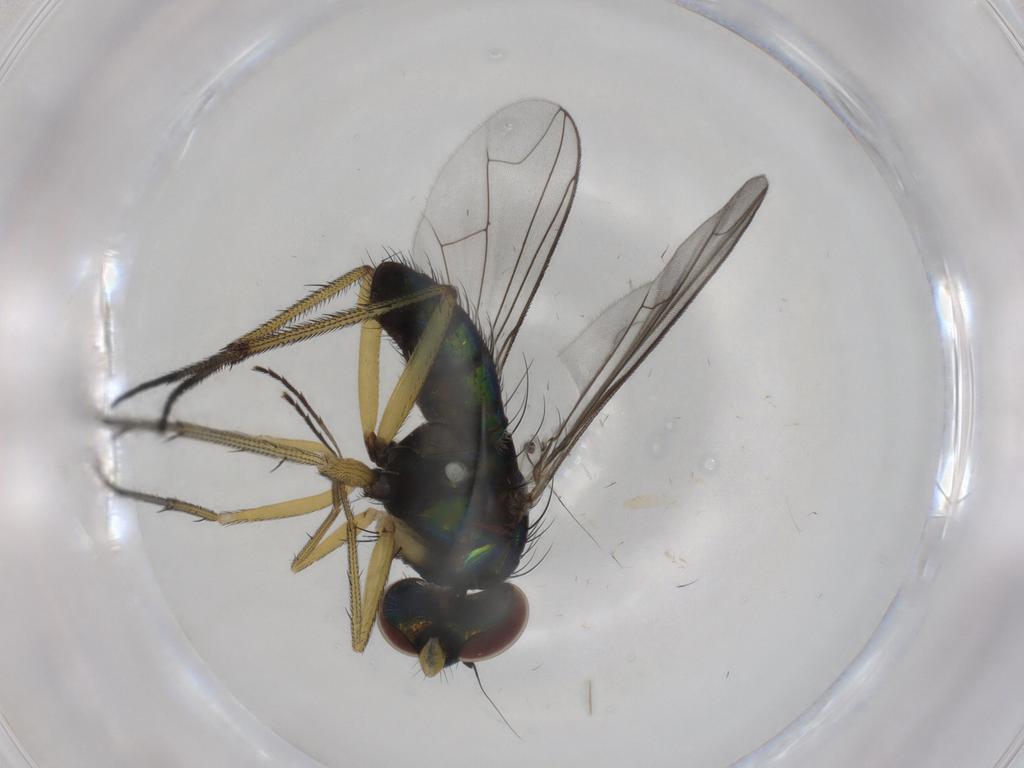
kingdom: Animalia
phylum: Arthropoda
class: Insecta
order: Diptera
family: Dolichopodidae
